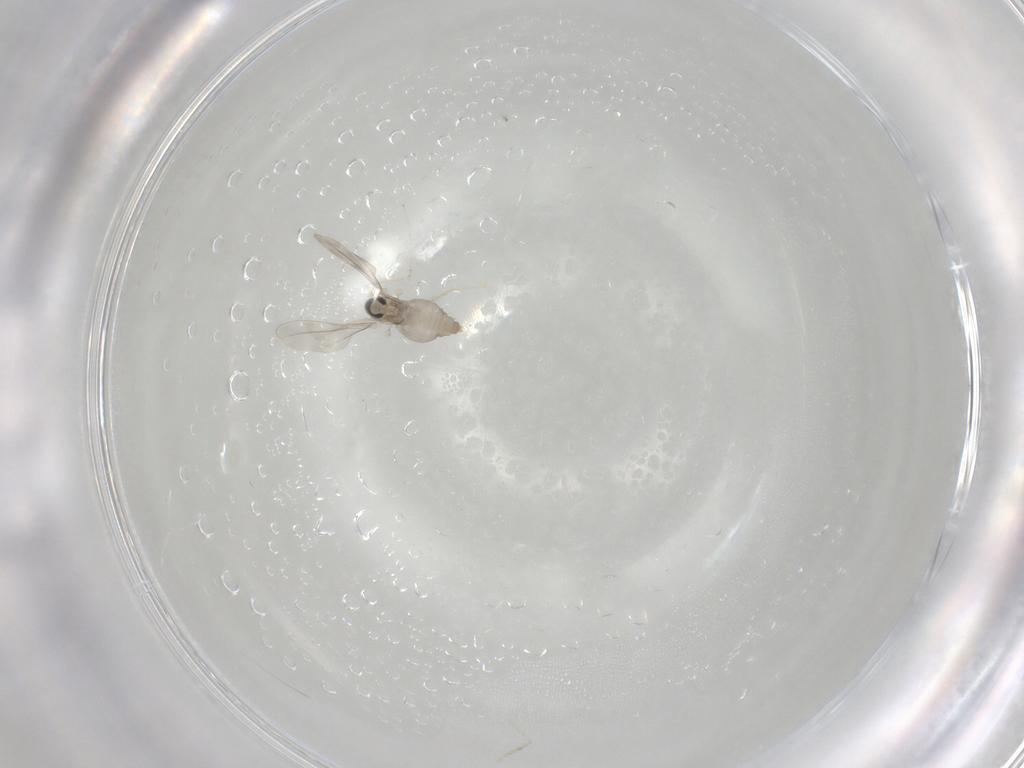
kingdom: Animalia
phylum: Arthropoda
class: Insecta
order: Diptera
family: Cecidomyiidae
